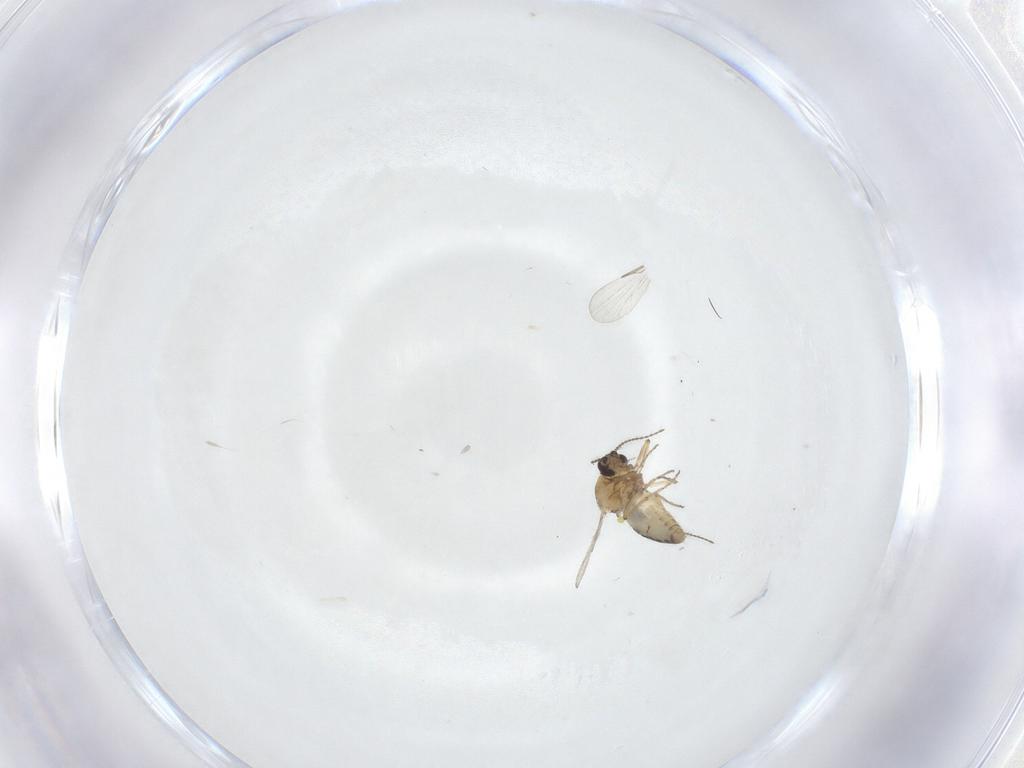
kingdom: Animalia
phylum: Arthropoda
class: Insecta
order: Diptera
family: Ceratopogonidae
